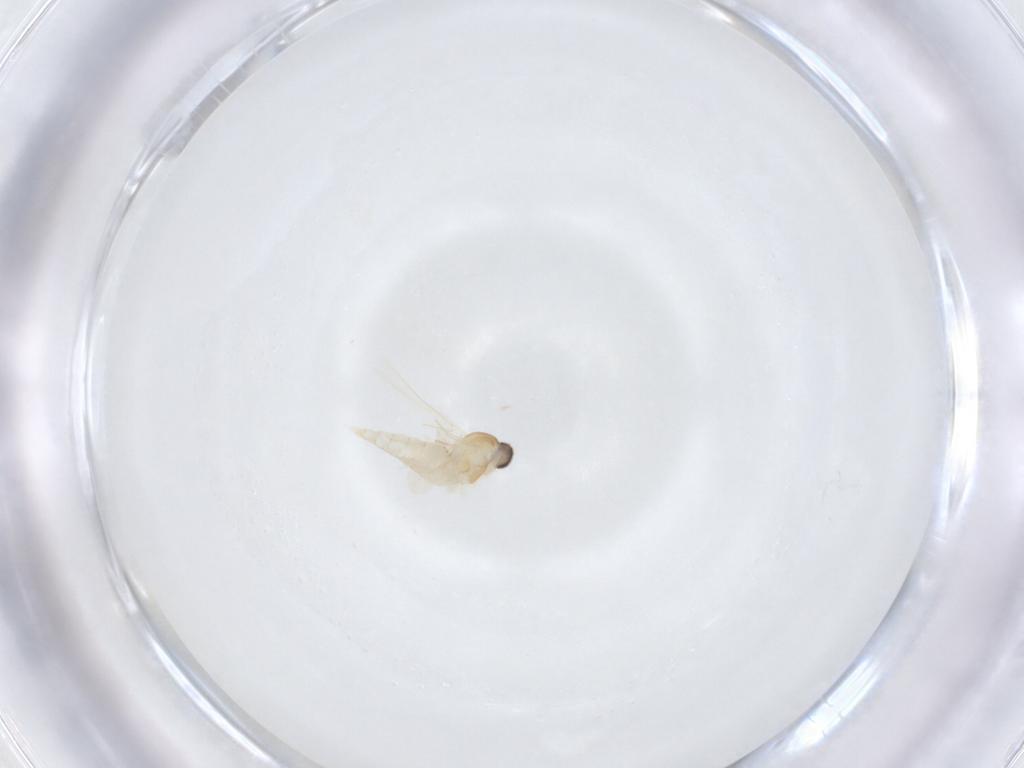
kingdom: Animalia
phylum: Arthropoda
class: Insecta
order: Diptera
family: Cecidomyiidae
